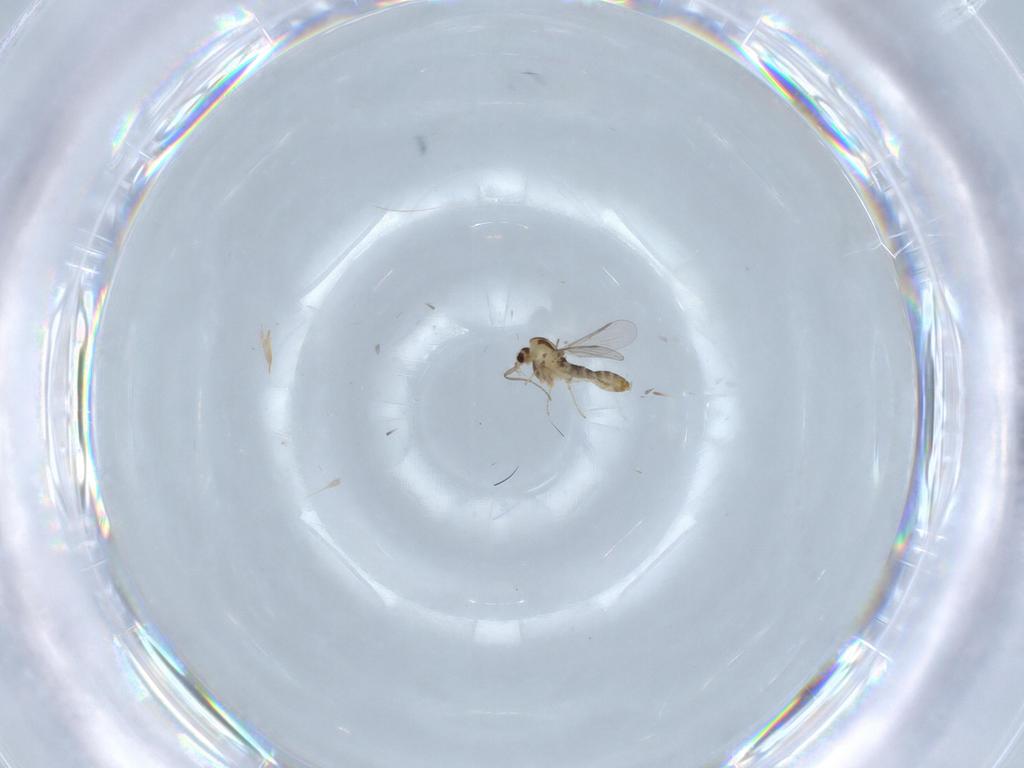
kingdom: Animalia
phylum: Arthropoda
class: Insecta
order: Diptera
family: Chironomidae
